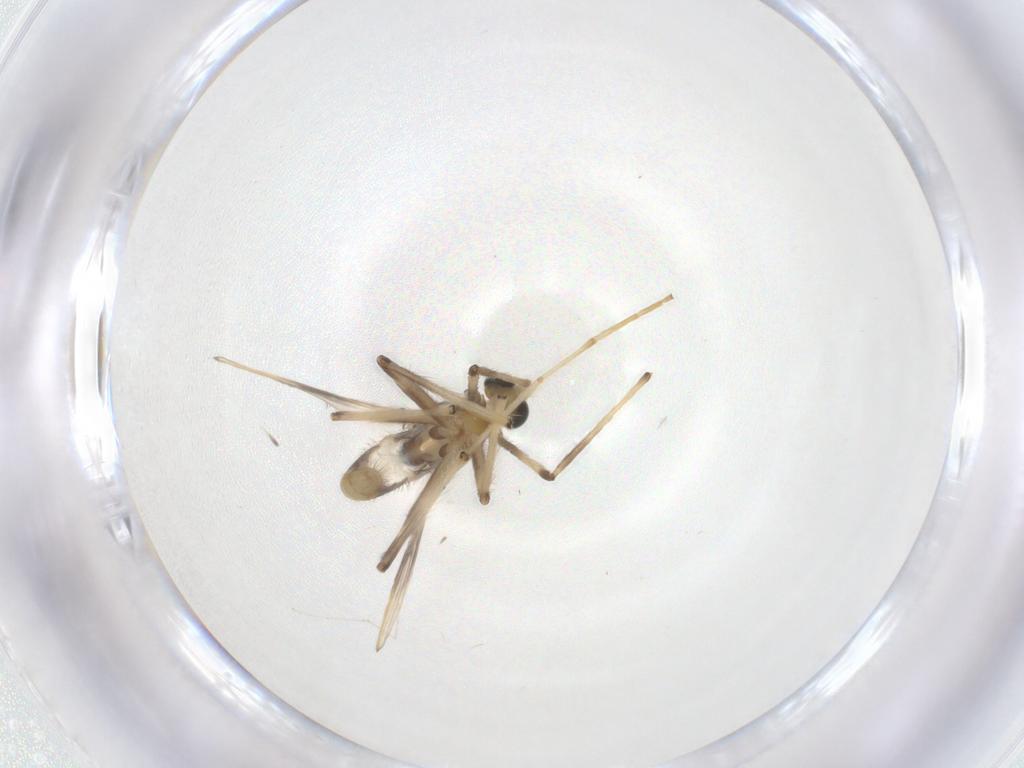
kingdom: Animalia
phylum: Arthropoda
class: Insecta
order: Diptera
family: Chironomidae
